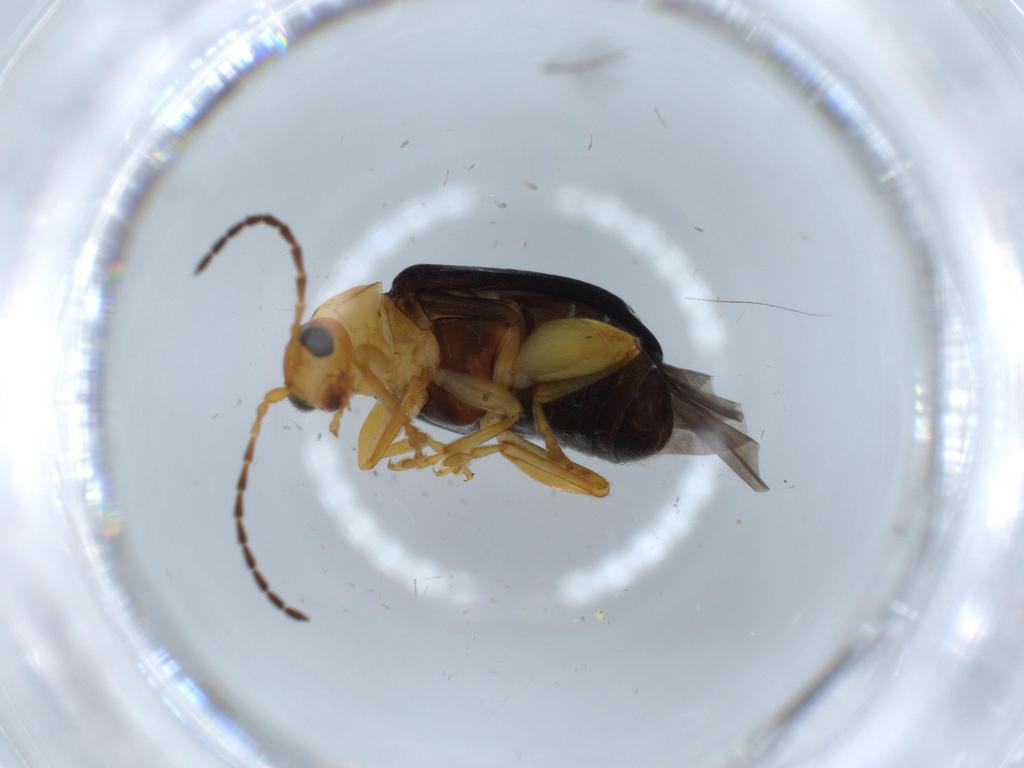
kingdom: Animalia
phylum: Arthropoda
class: Insecta
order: Coleoptera
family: Chrysomelidae
